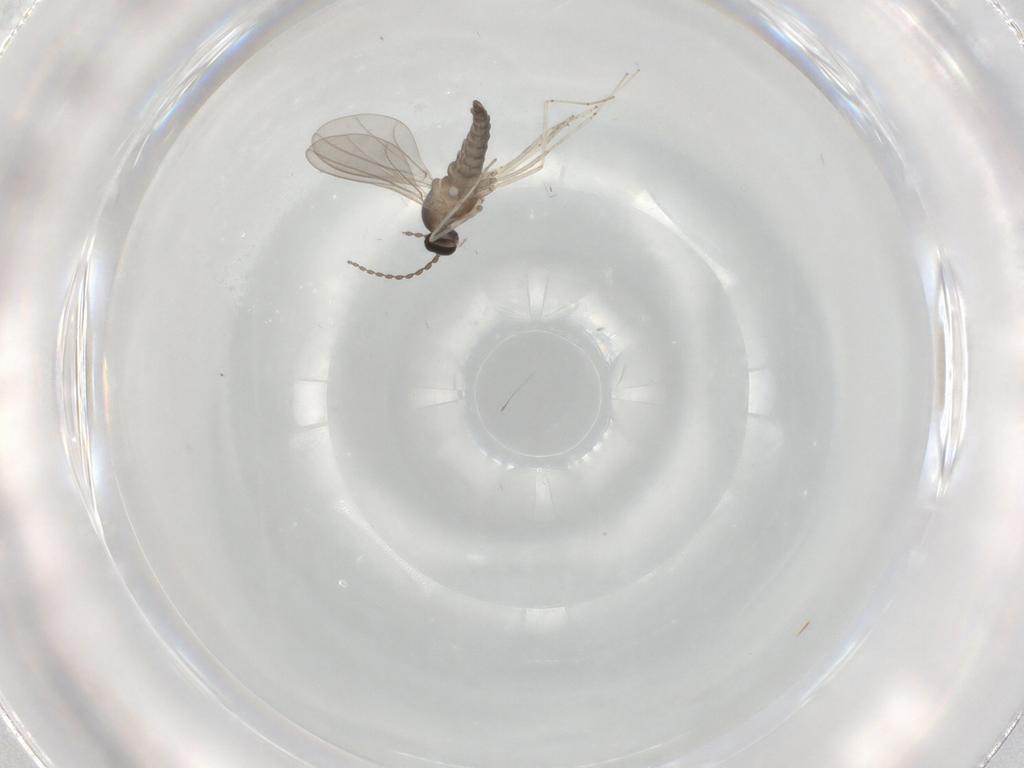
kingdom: Animalia
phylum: Arthropoda
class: Insecta
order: Diptera
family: Cecidomyiidae
